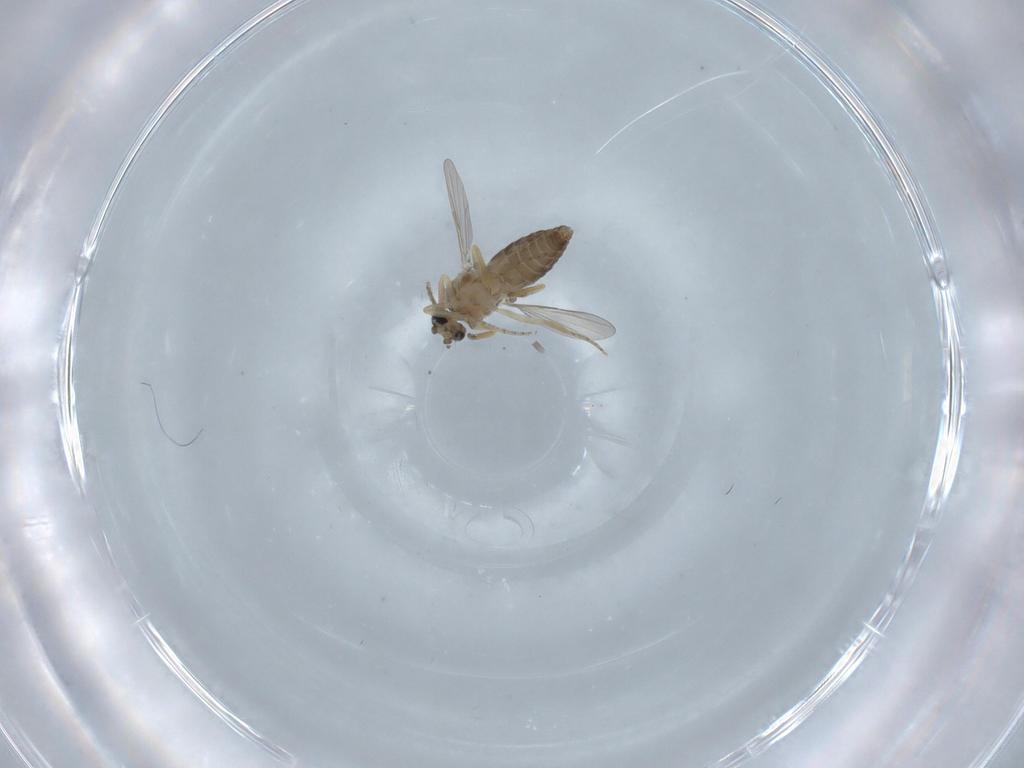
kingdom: Animalia
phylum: Arthropoda
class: Insecta
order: Diptera
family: Ceratopogonidae
